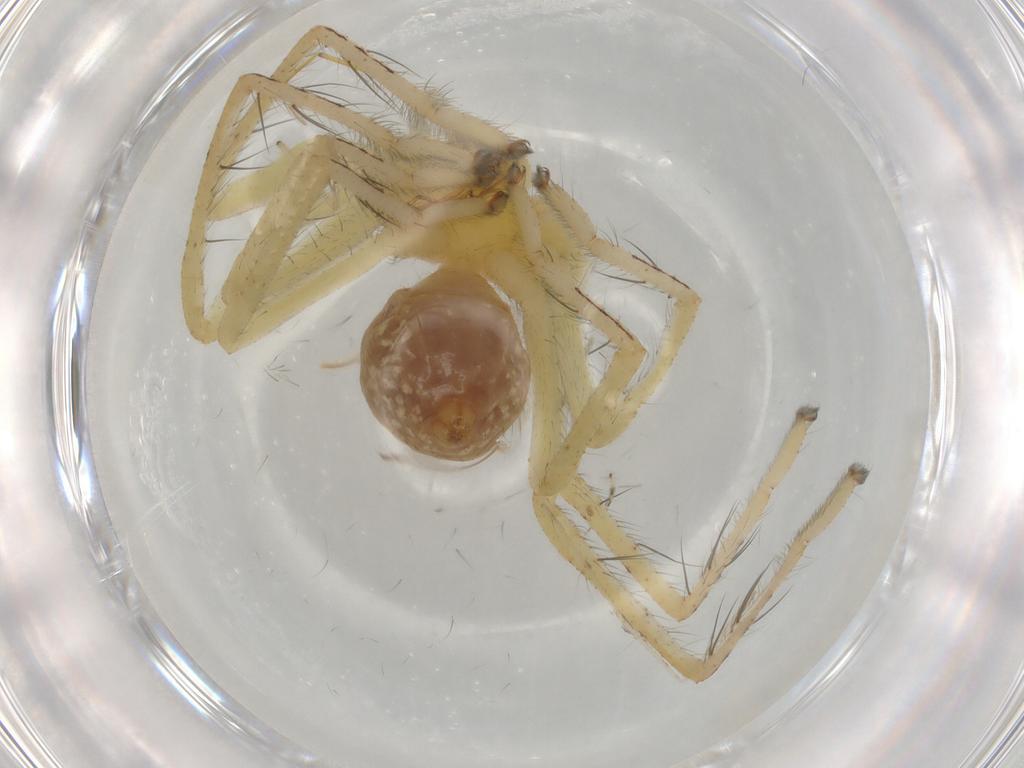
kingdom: Animalia
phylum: Arthropoda
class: Arachnida
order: Araneae
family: Sparassidae
